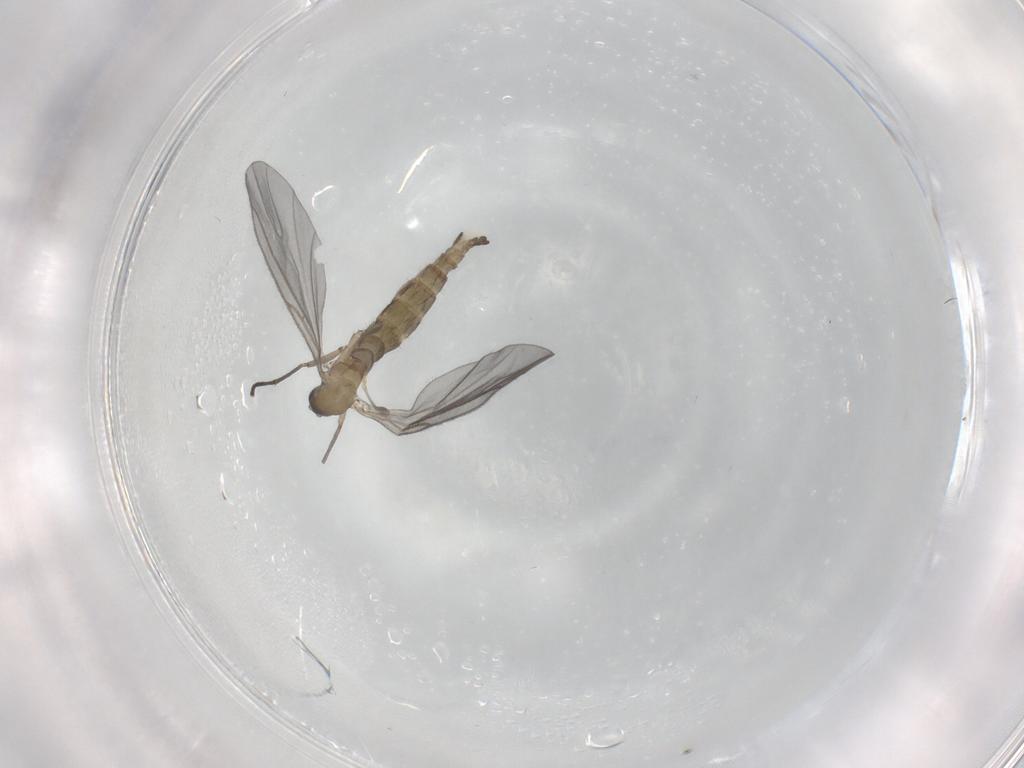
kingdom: Animalia
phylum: Arthropoda
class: Insecta
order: Diptera
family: Sciaridae
